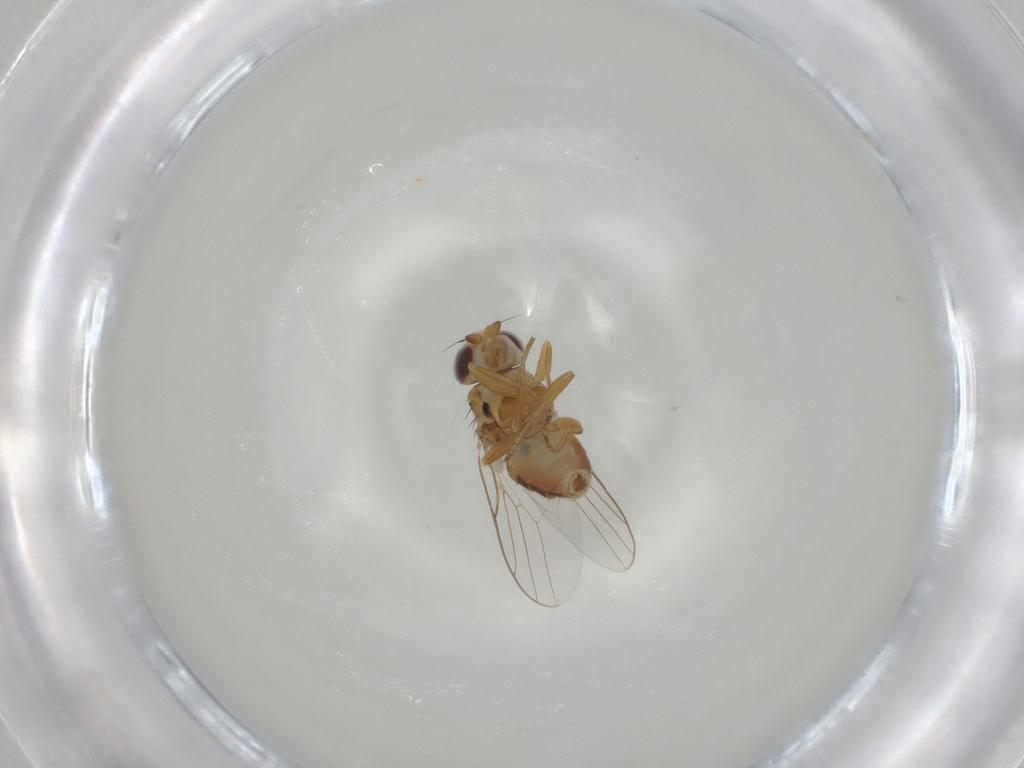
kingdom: Animalia
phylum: Arthropoda
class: Insecta
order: Diptera
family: Chloropidae
